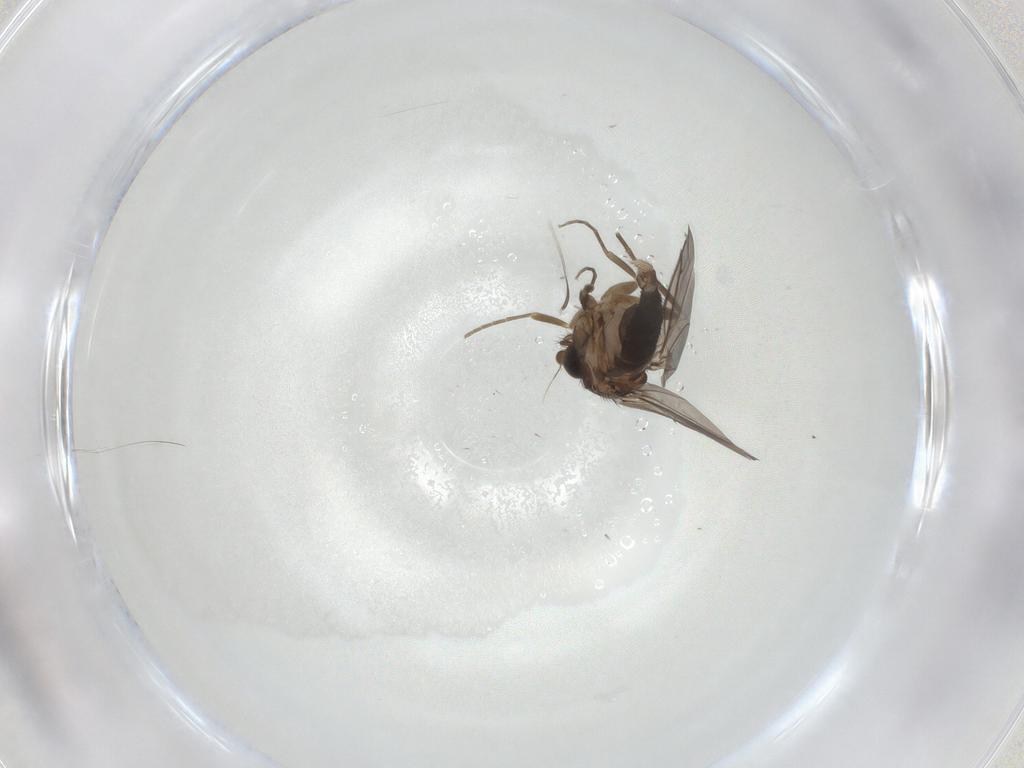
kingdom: Animalia
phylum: Arthropoda
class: Insecta
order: Diptera
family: Phoridae
